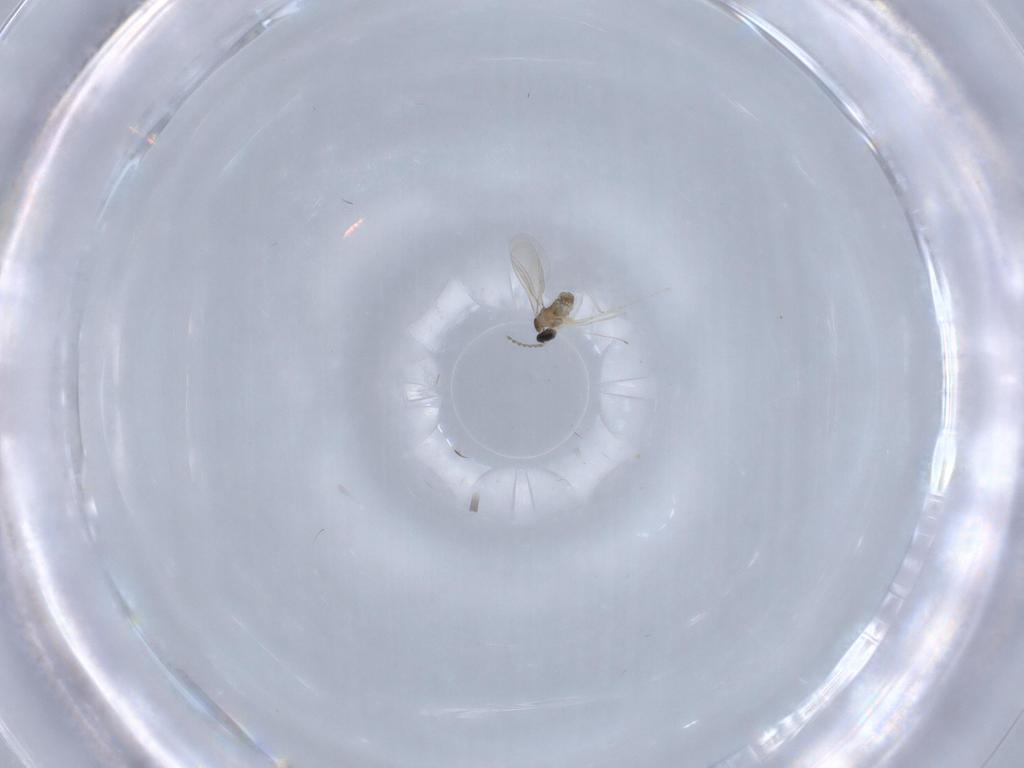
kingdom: Animalia
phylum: Arthropoda
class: Insecta
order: Diptera
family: Cecidomyiidae
